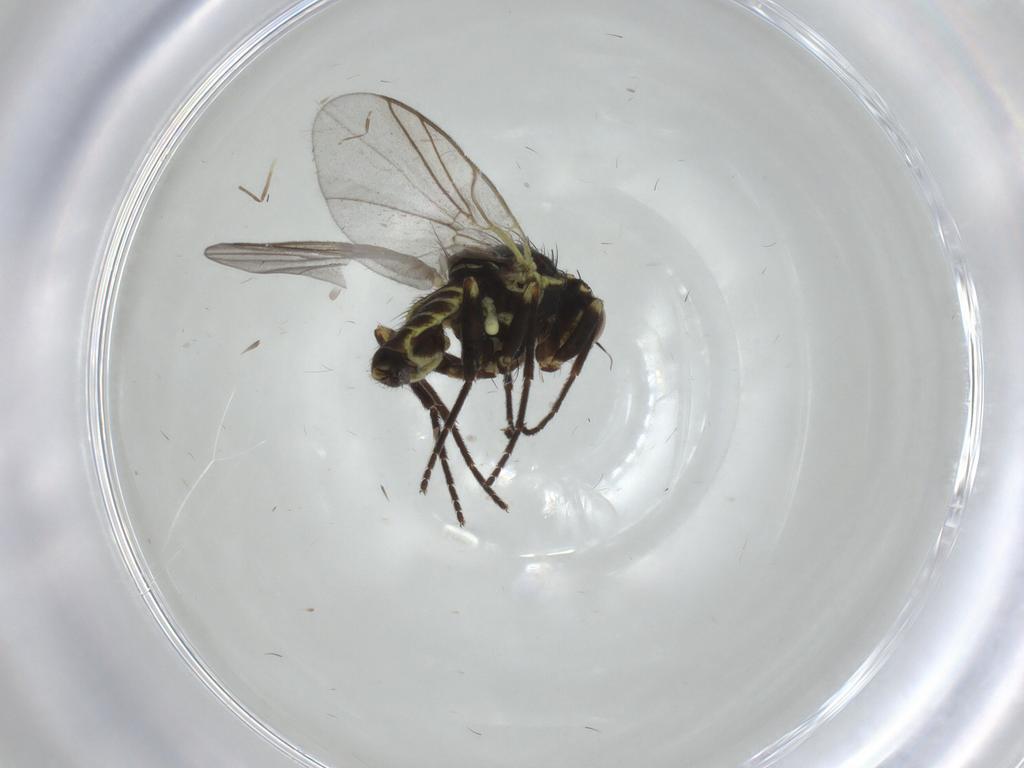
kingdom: Animalia
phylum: Arthropoda
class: Insecta
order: Diptera
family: Agromyzidae
